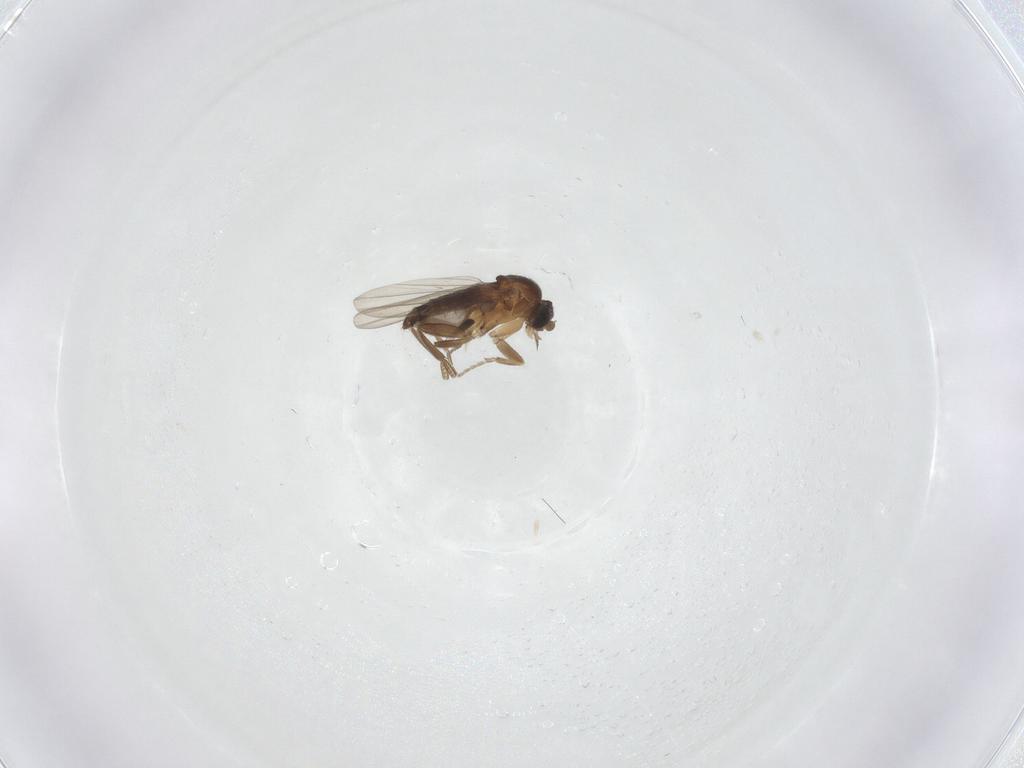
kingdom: Animalia
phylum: Arthropoda
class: Insecta
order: Diptera
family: Phoridae
